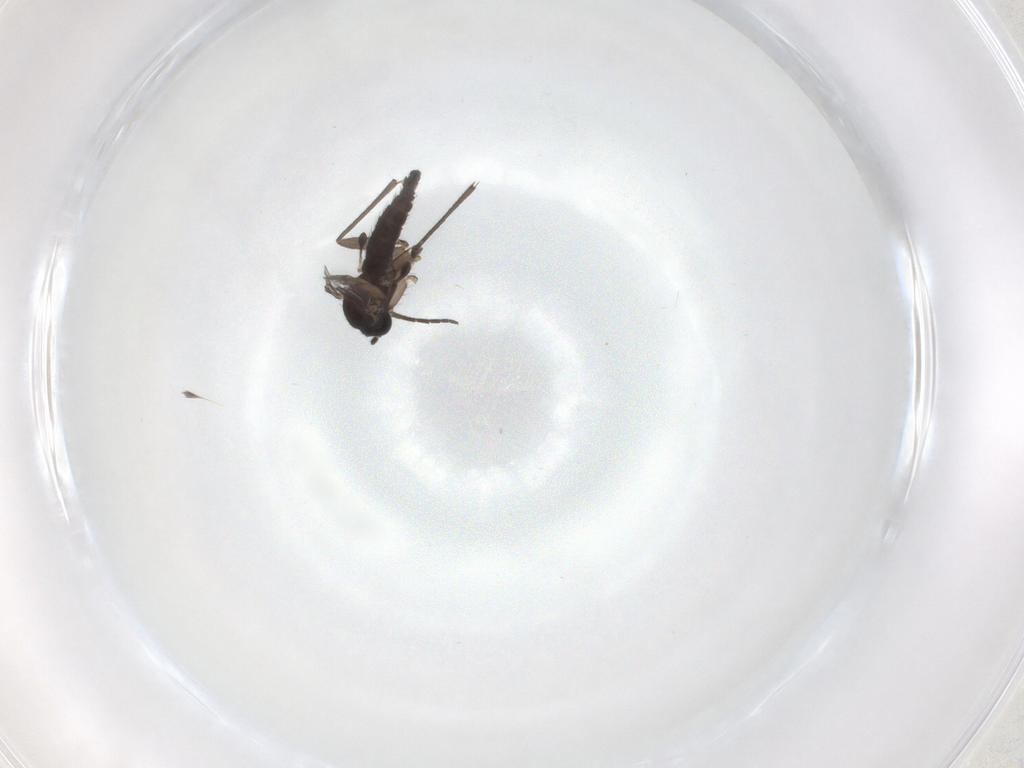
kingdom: Animalia
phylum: Arthropoda
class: Insecta
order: Diptera
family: Sciaridae
